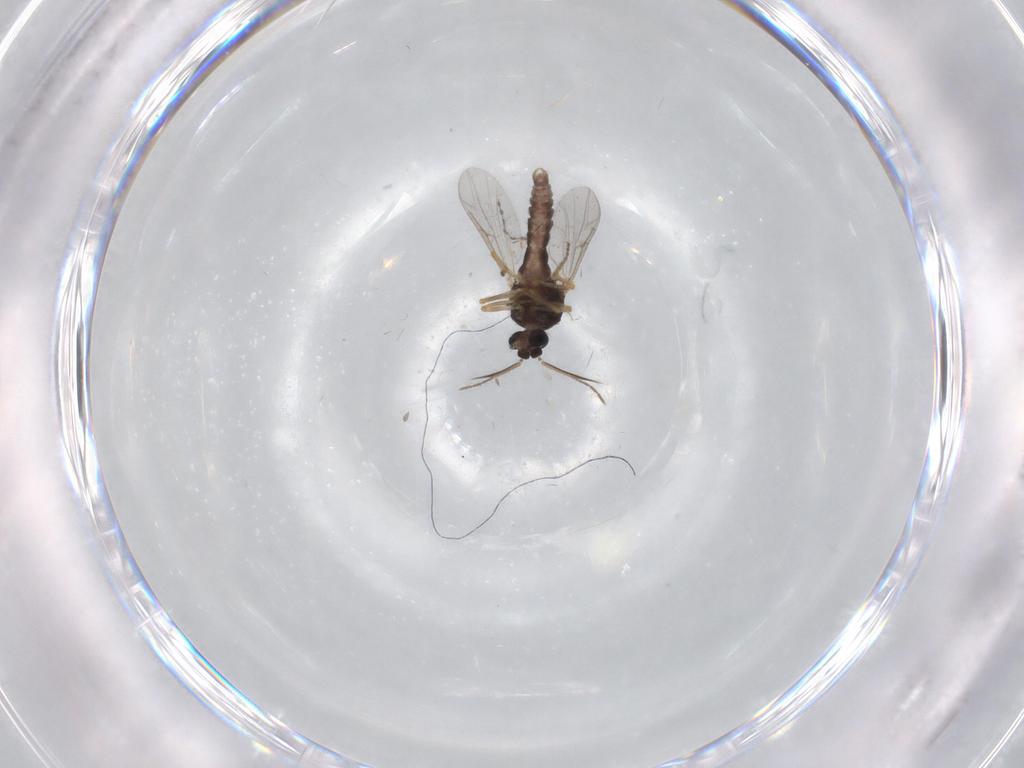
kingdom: Animalia
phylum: Arthropoda
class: Insecta
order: Diptera
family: Ceratopogonidae
